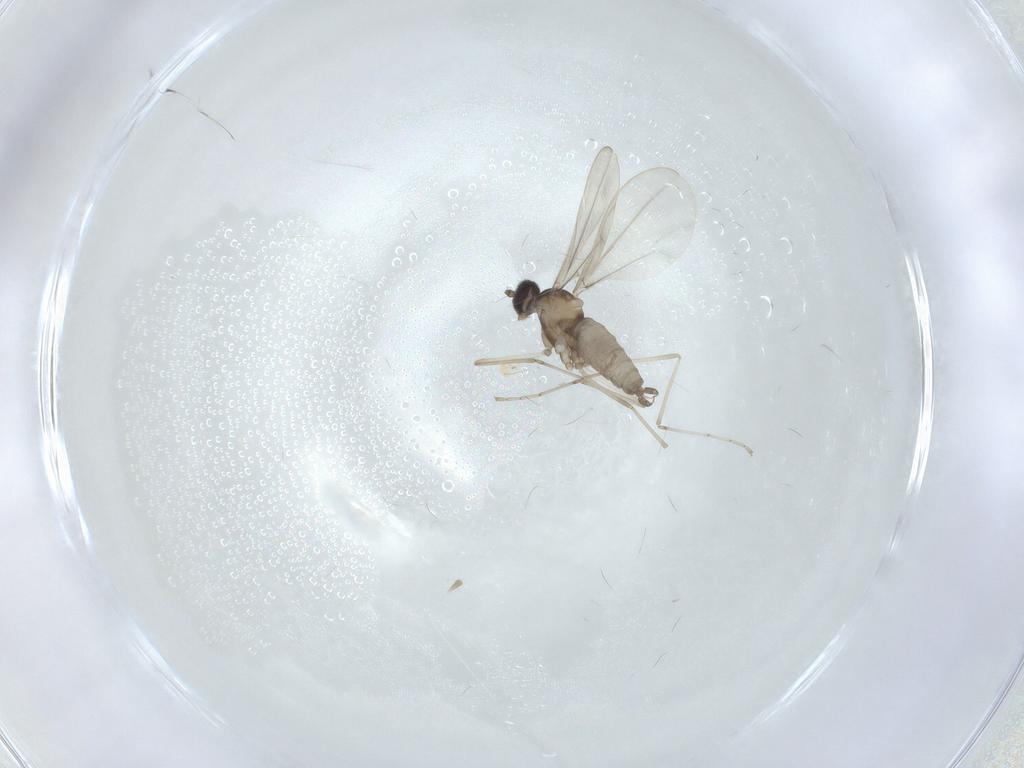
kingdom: Animalia
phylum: Arthropoda
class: Insecta
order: Diptera
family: Cecidomyiidae
